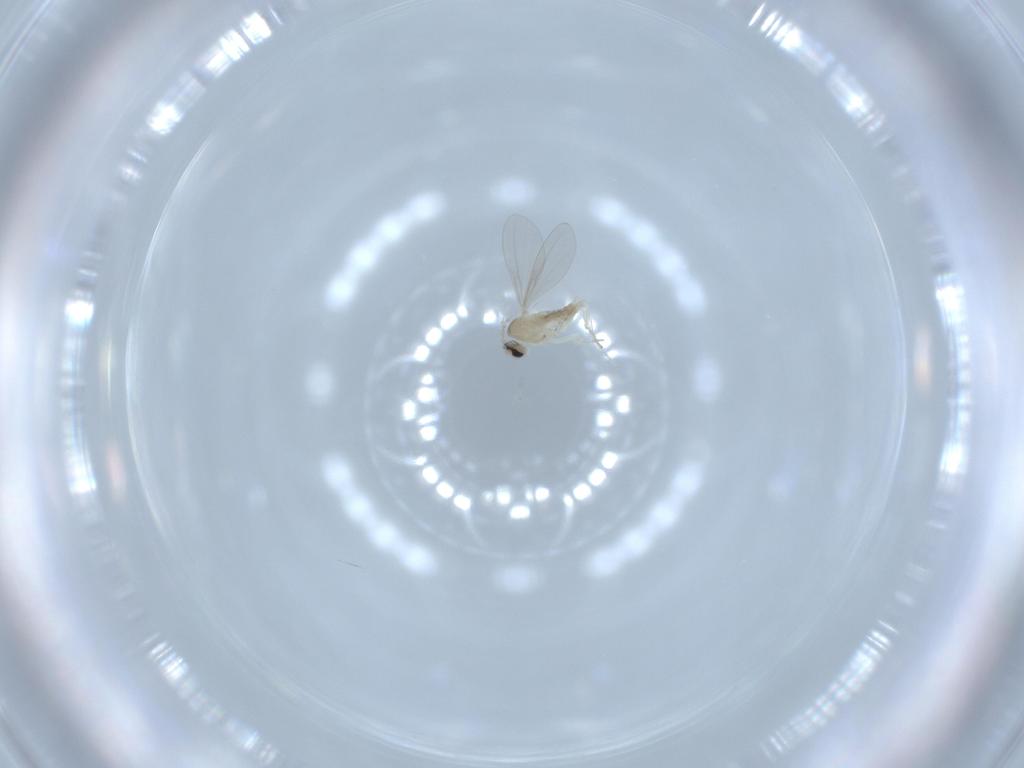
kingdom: Animalia
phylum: Arthropoda
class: Insecta
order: Diptera
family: Cecidomyiidae
